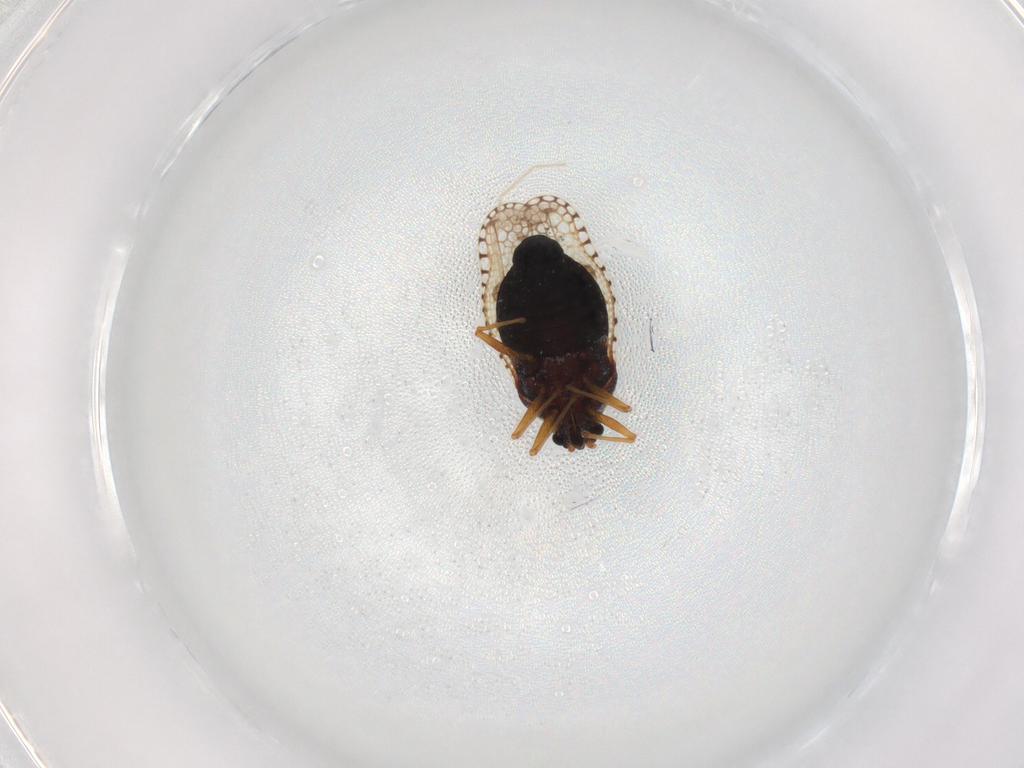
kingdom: Animalia
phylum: Arthropoda
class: Insecta
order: Hemiptera
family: Tingidae
